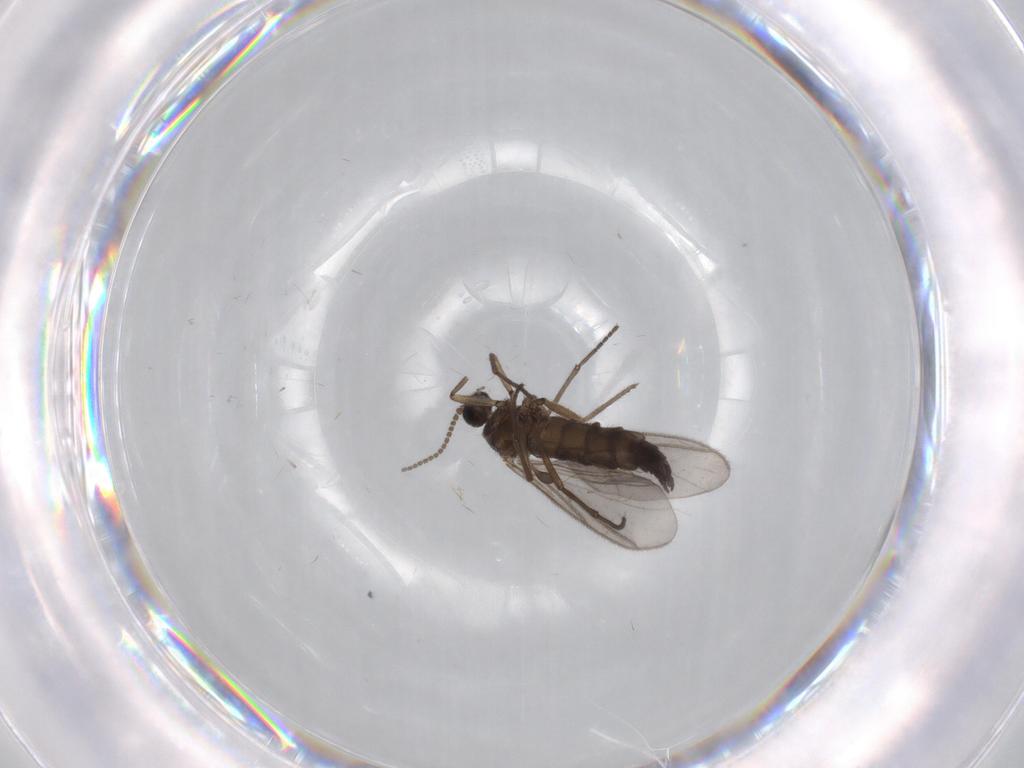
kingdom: Animalia
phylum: Arthropoda
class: Insecta
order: Diptera
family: Sciaridae
